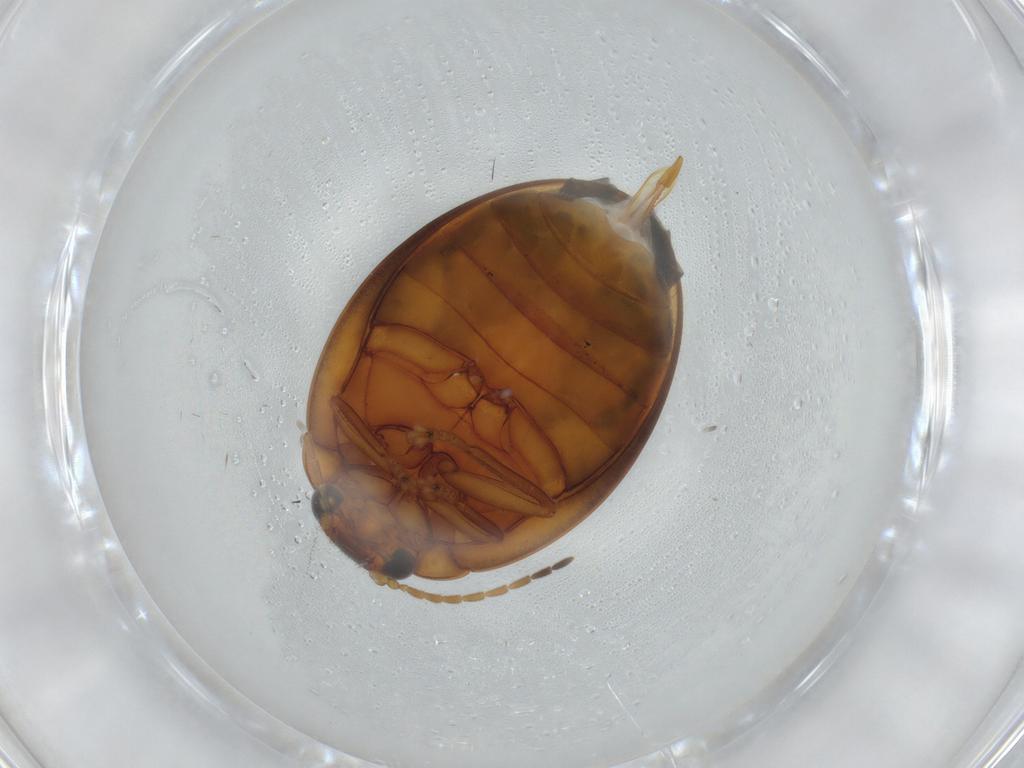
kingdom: Animalia
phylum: Arthropoda
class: Insecta
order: Coleoptera
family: Scirtidae
